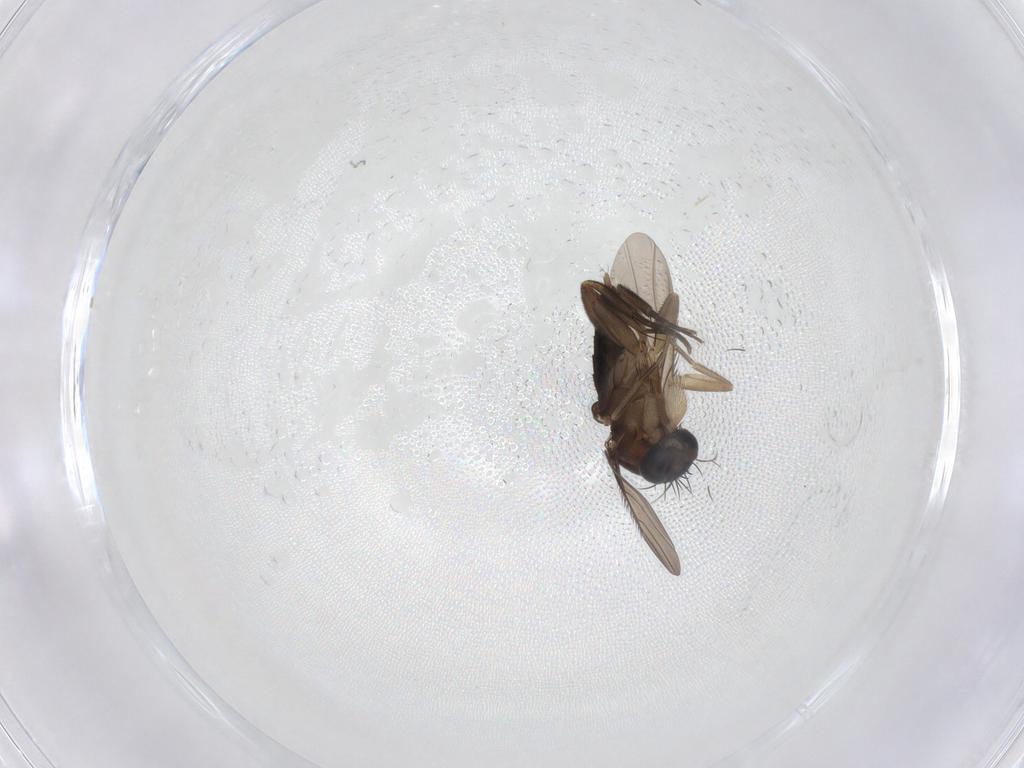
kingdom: Animalia
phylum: Arthropoda
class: Insecta
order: Diptera
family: Phoridae
